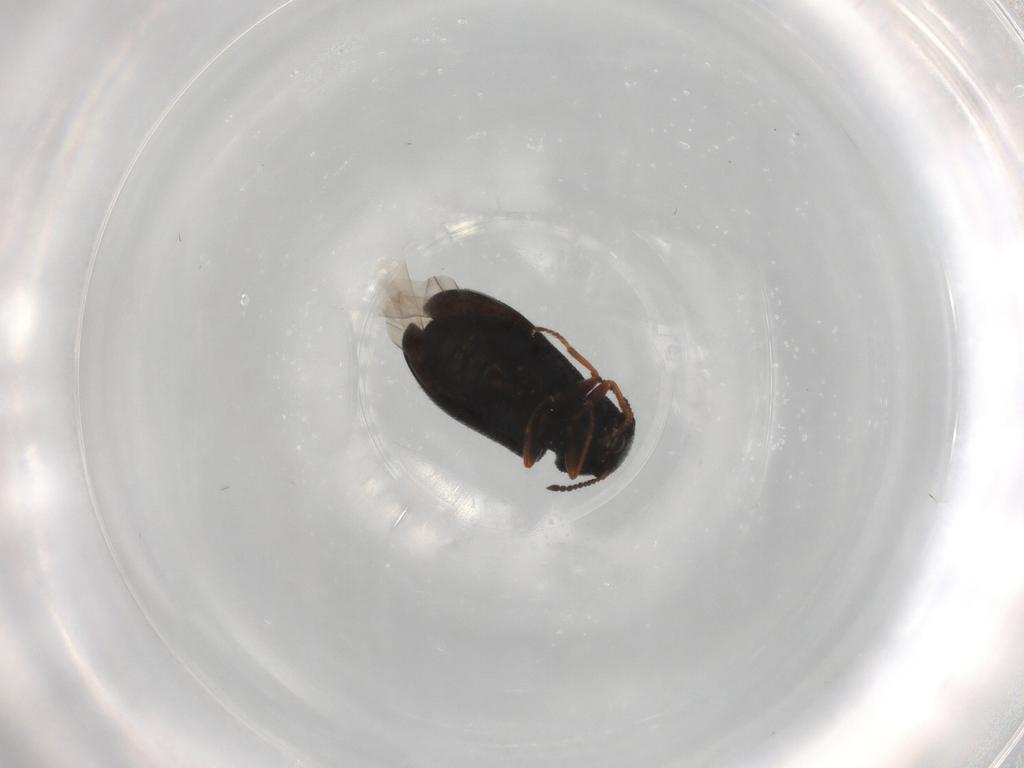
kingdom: Animalia
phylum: Arthropoda
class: Insecta
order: Coleoptera
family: Melyridae
